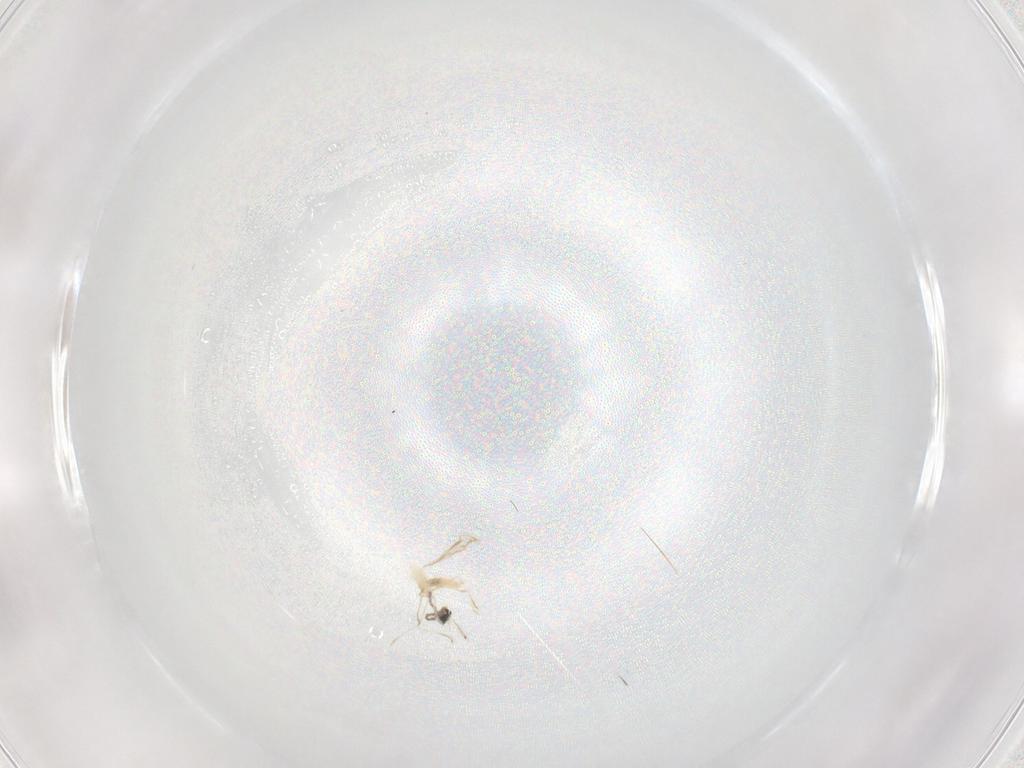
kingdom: Animalia
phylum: Arthropoda
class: Insecta
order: Diptera
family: Cecidomyiidae
